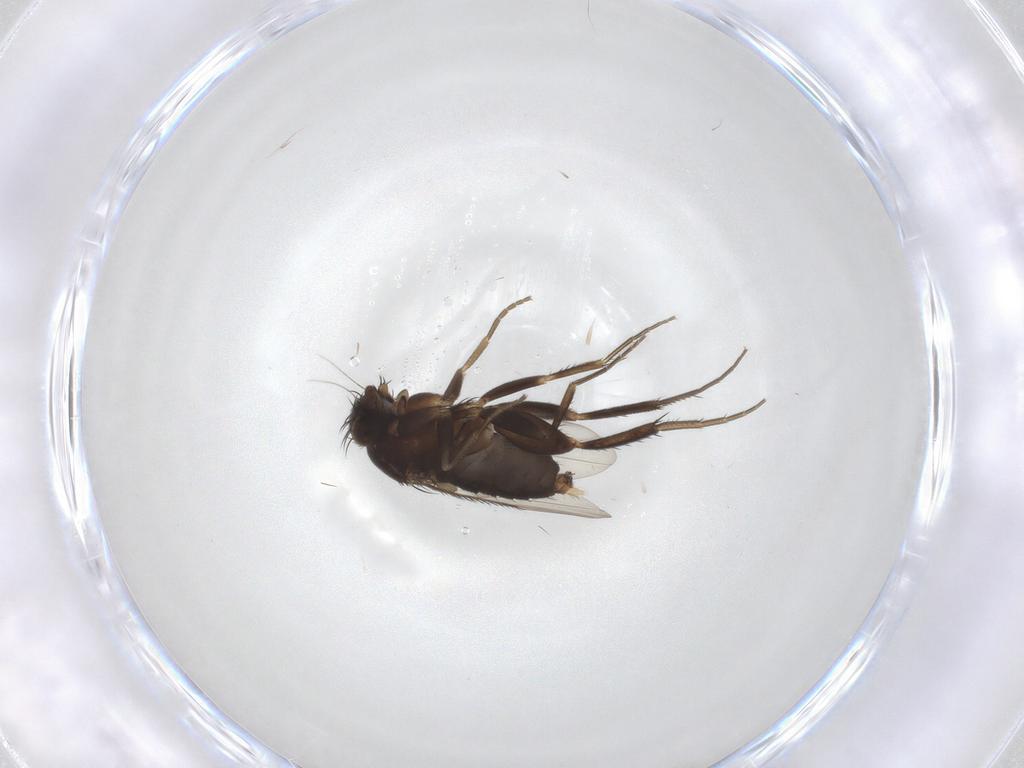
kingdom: Animalia
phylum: Arthropoda
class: Insecta
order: Diptera
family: Phoridae
